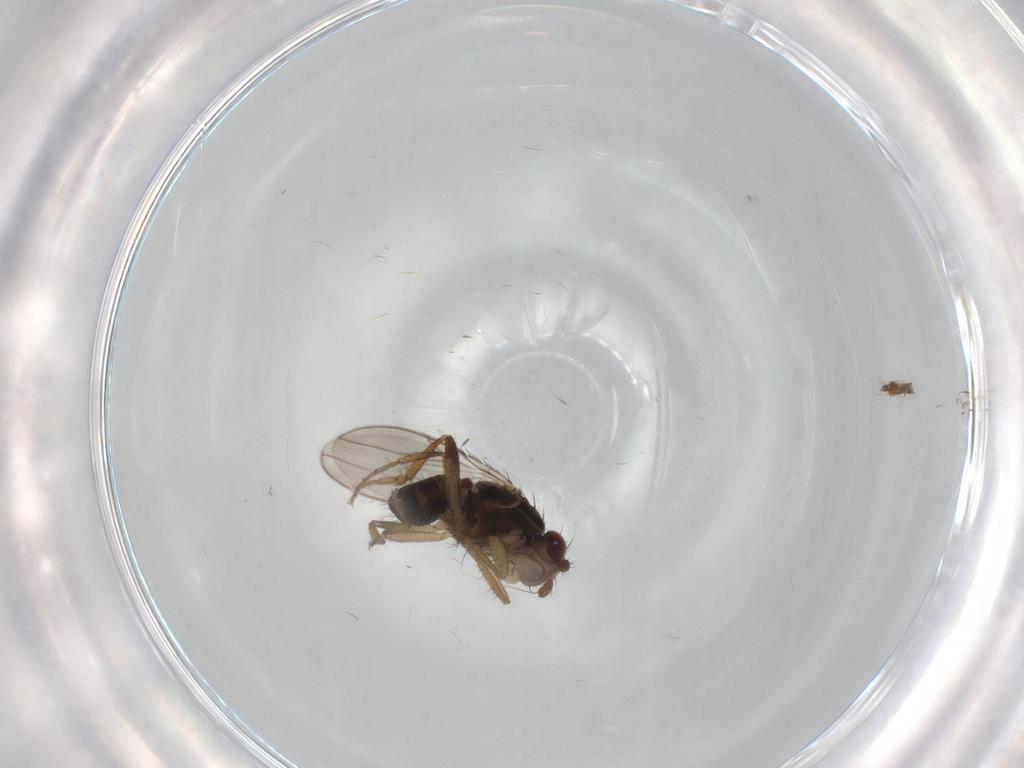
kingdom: Animalia
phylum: Arthropoda
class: Insecta
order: Diptera
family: Sphaeroceridae
